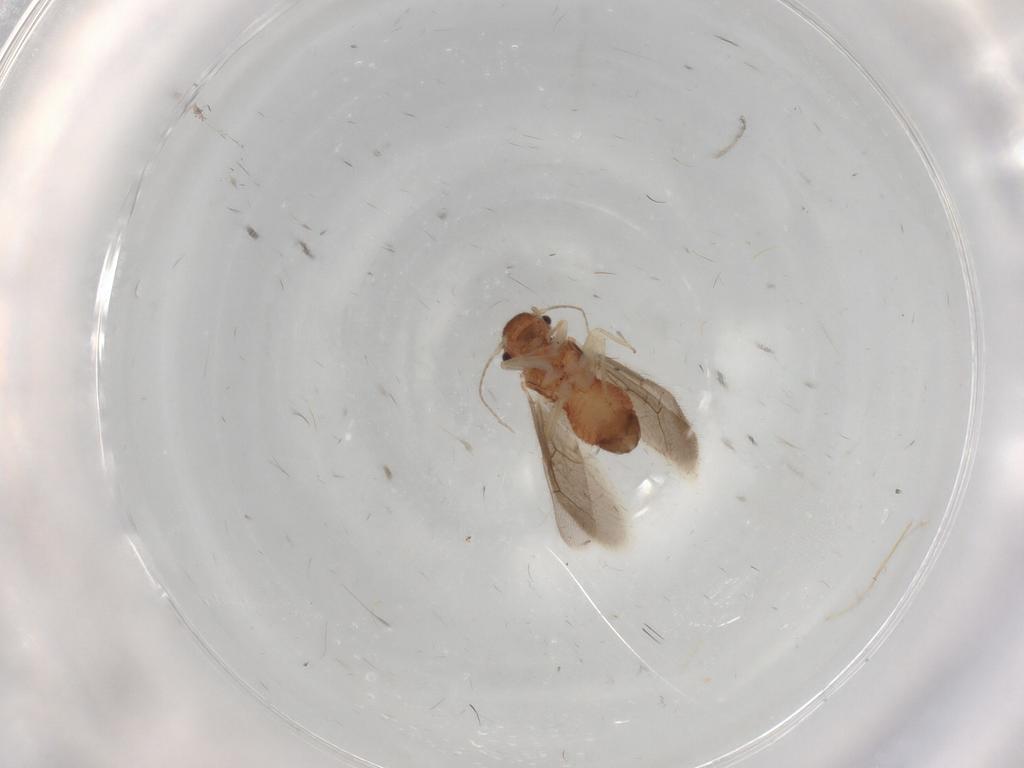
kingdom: Animalia
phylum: Arthropoda
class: Insecta
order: Psocodea
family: Archipsocidae
